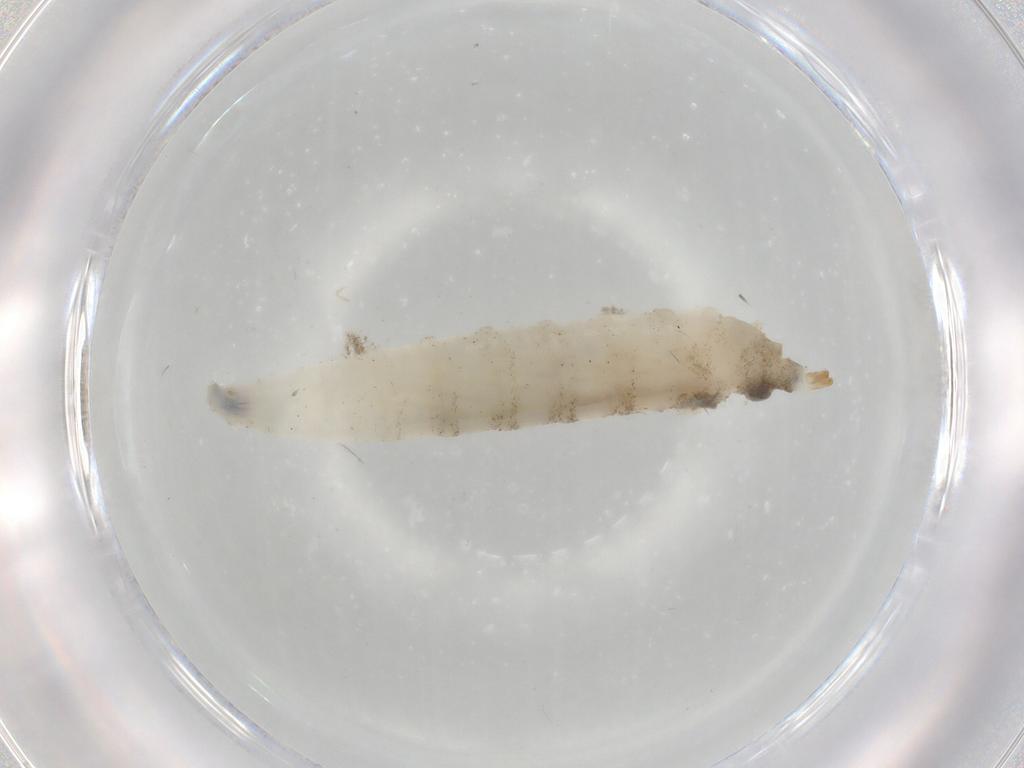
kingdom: Animalia
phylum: Arthropoda
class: Insecta
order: Diptera
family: Drosophilidae
